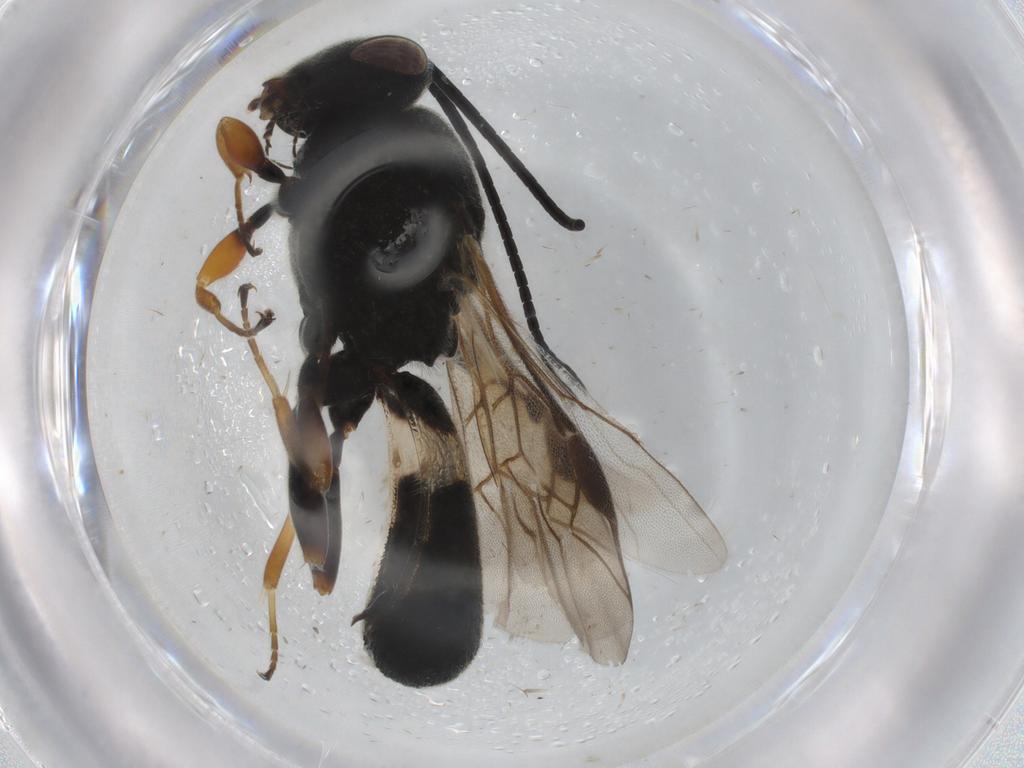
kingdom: Animalia
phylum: Arthropoda
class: Insecta
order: Hymenoptera
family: Braconidae
